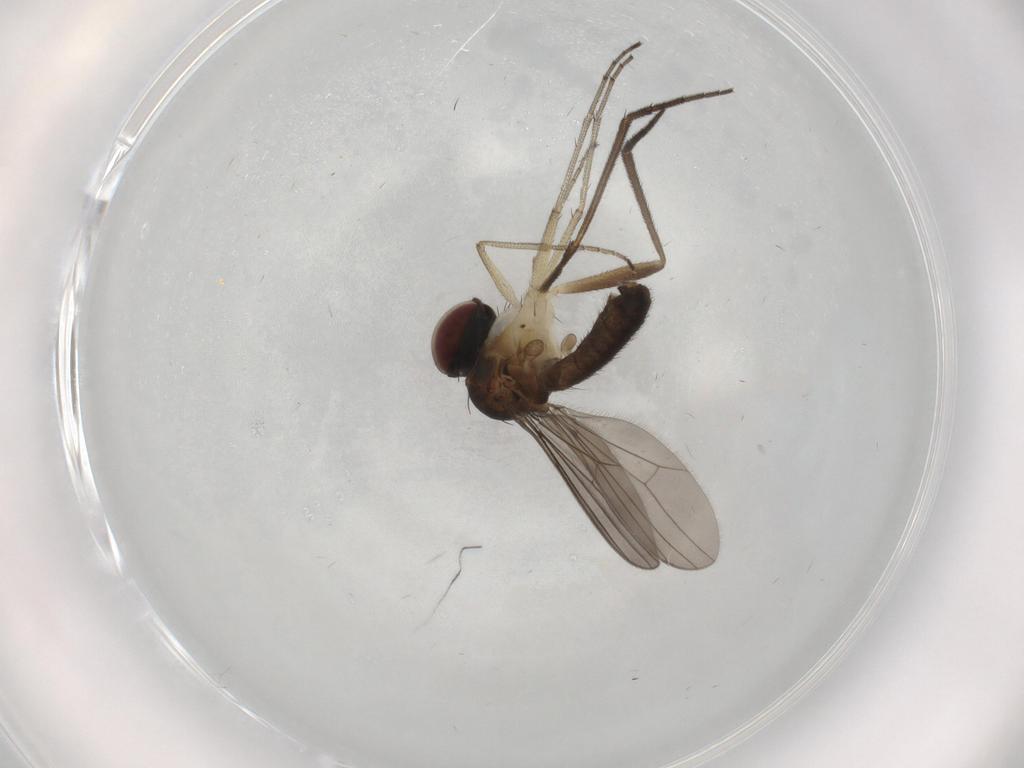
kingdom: Animalia
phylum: Arthropoda
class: Insecta
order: Diptera
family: Dolichopodidae
